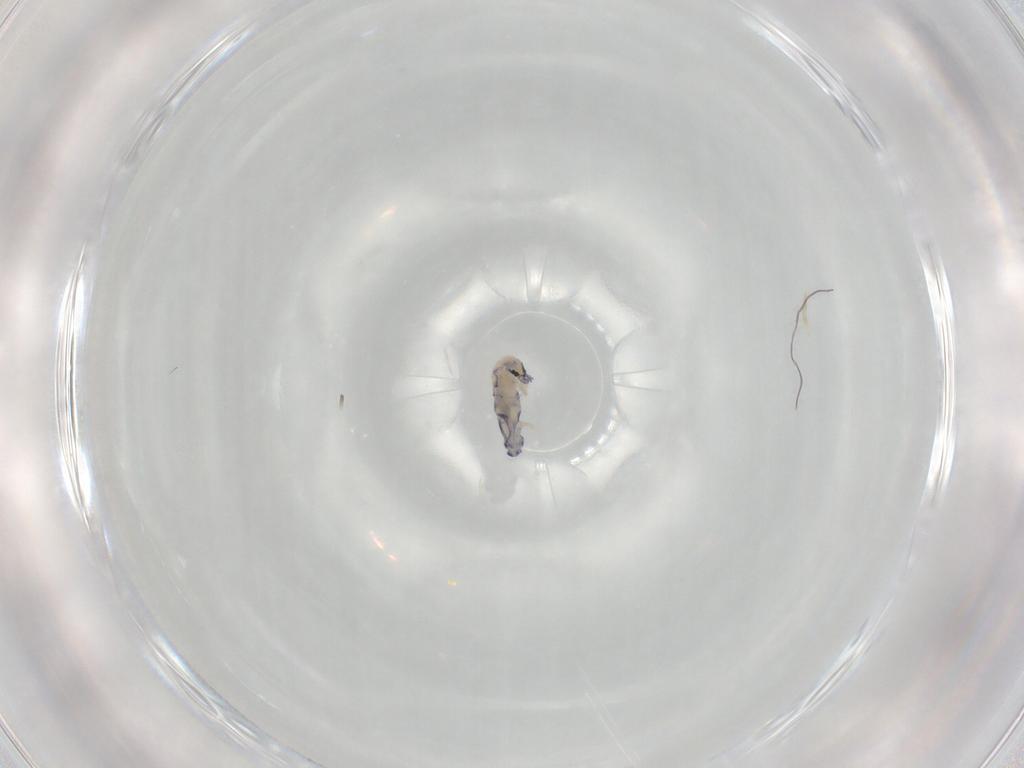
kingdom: Animalia
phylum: Arthropoda
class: Collembola
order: Entomobryomorpha
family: Entomobryidae
